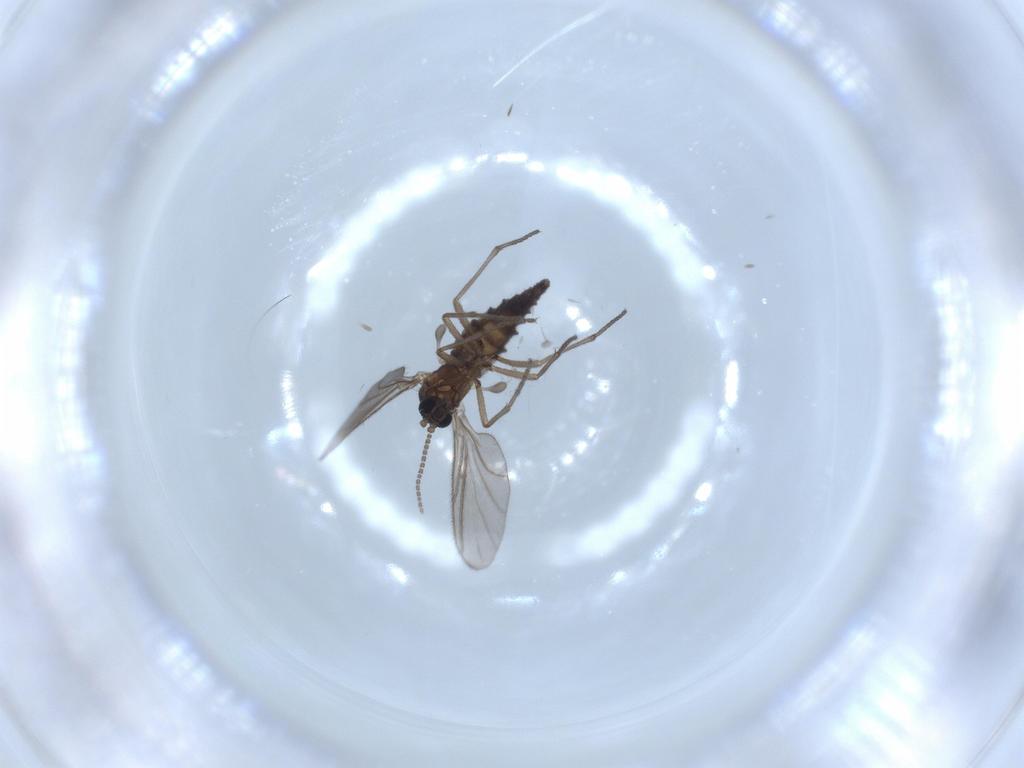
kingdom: Animalia
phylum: Arthropoda
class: Insecta
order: Diptera
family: Sciaridae
